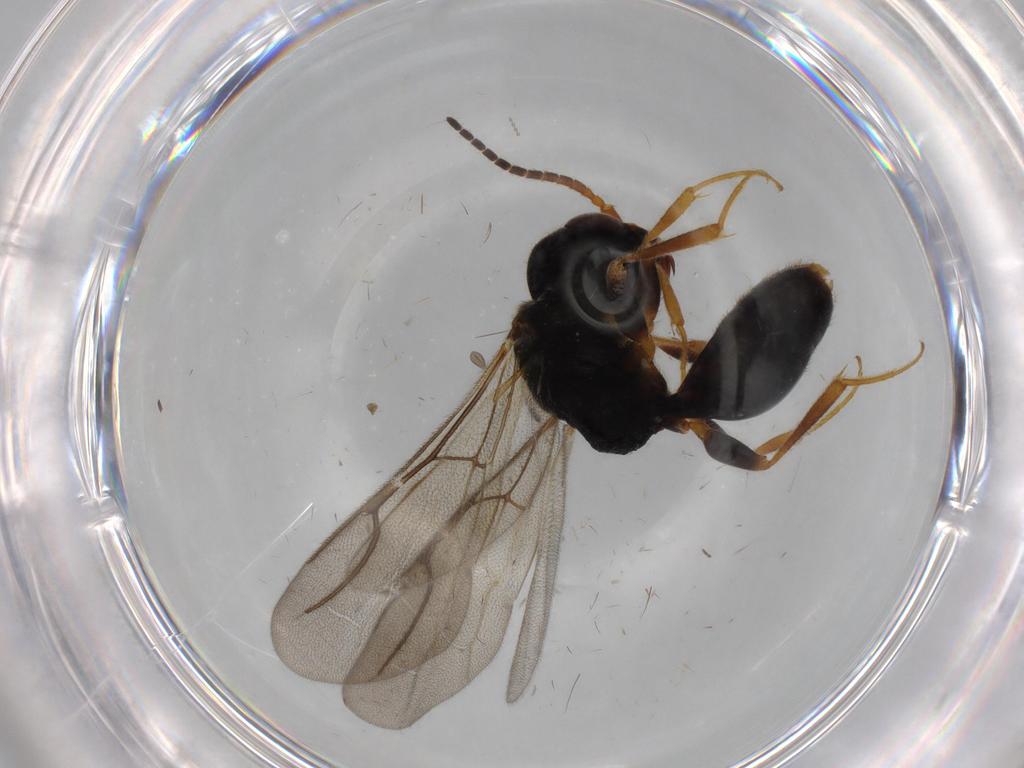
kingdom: Animalia
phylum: Arthropoda
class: Insecta
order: Hymenoptera
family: Bethylidae
